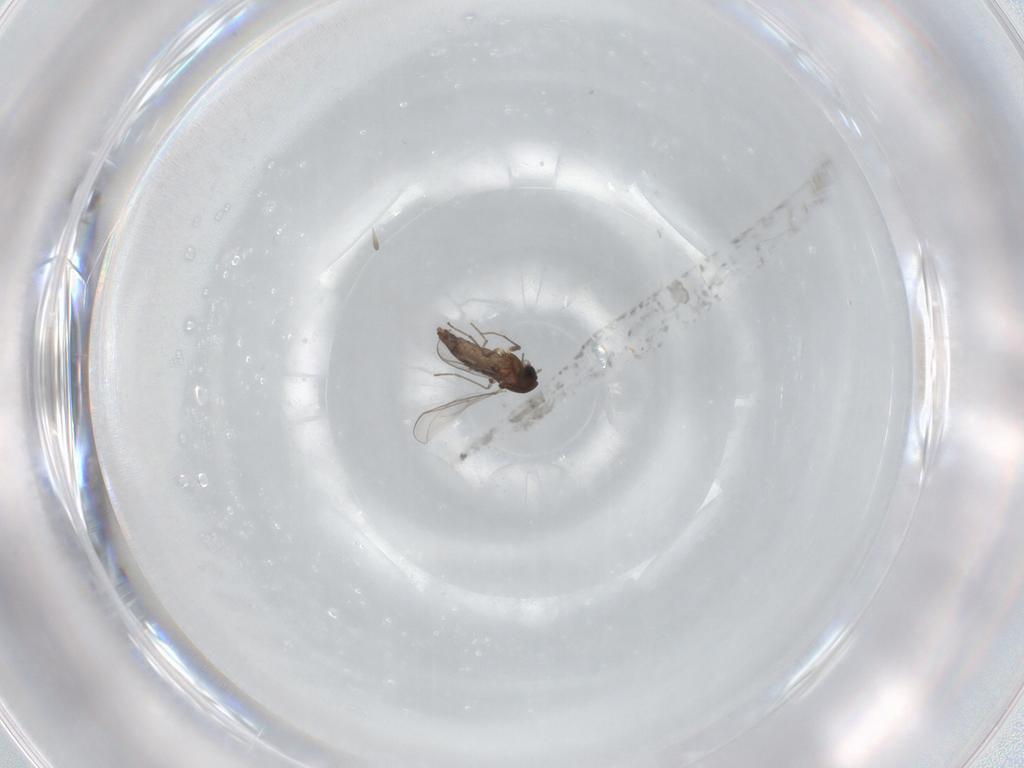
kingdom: Animalia
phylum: Arthropoda
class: Insecta
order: Diptera
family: Chironomidae
